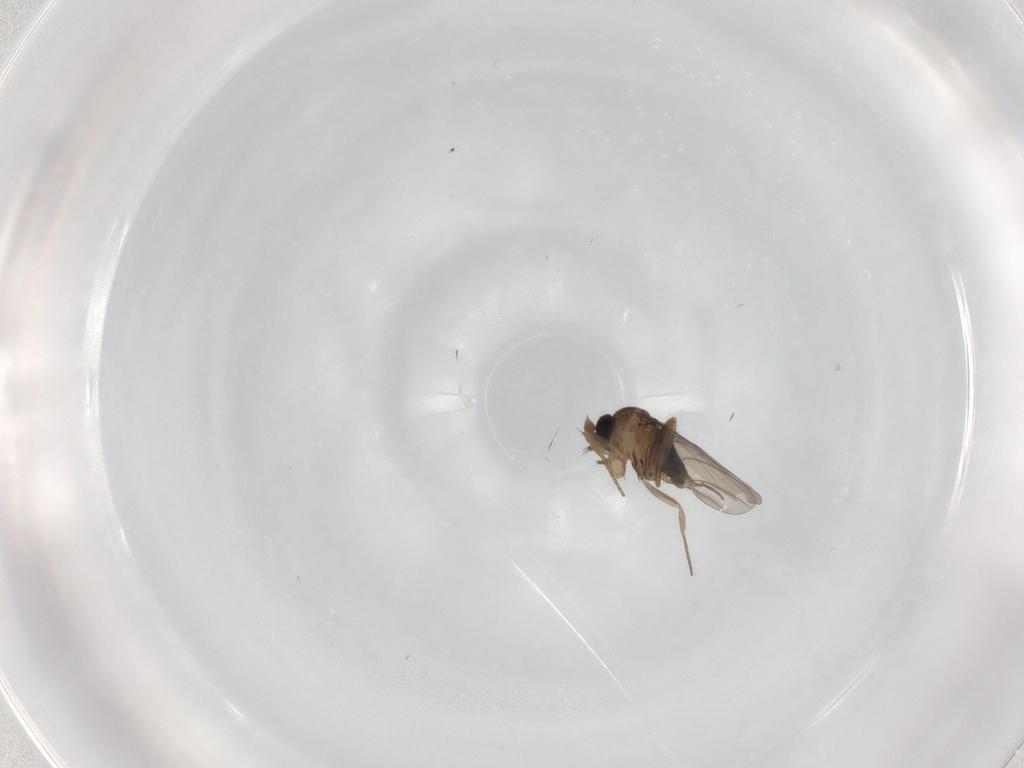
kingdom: Animalia
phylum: Arthropoda
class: Insecta
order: Diptera
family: Phoridae
